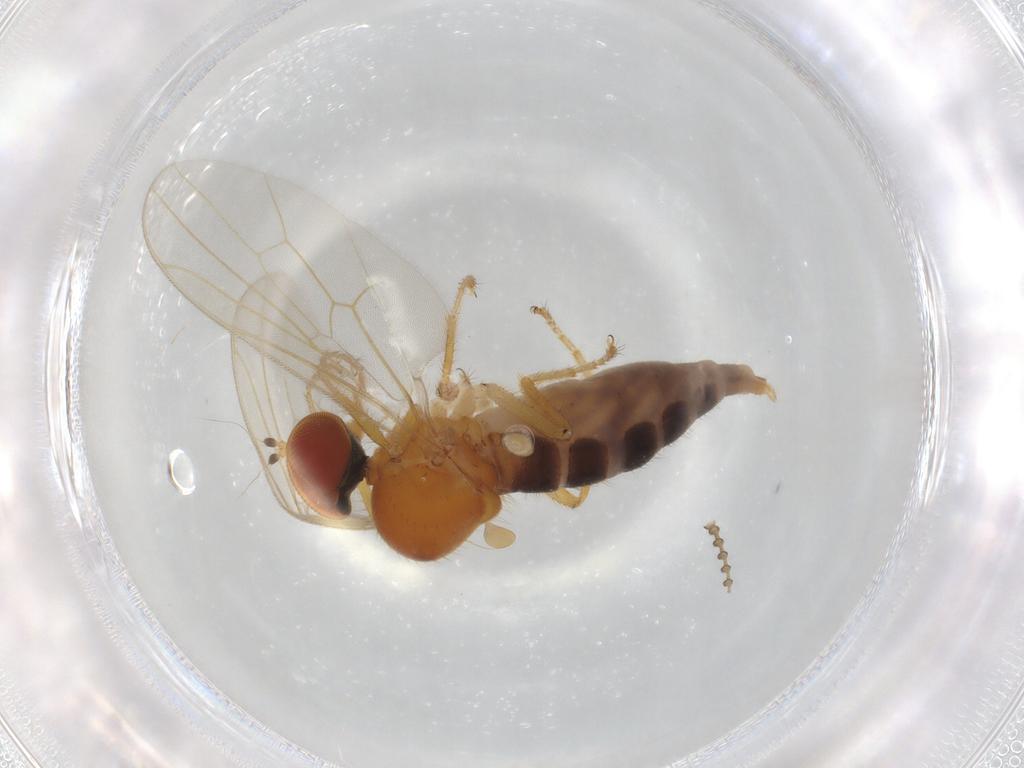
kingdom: Animalia
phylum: Arthropoda
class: Insecta
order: Diptera
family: Hybotidae
